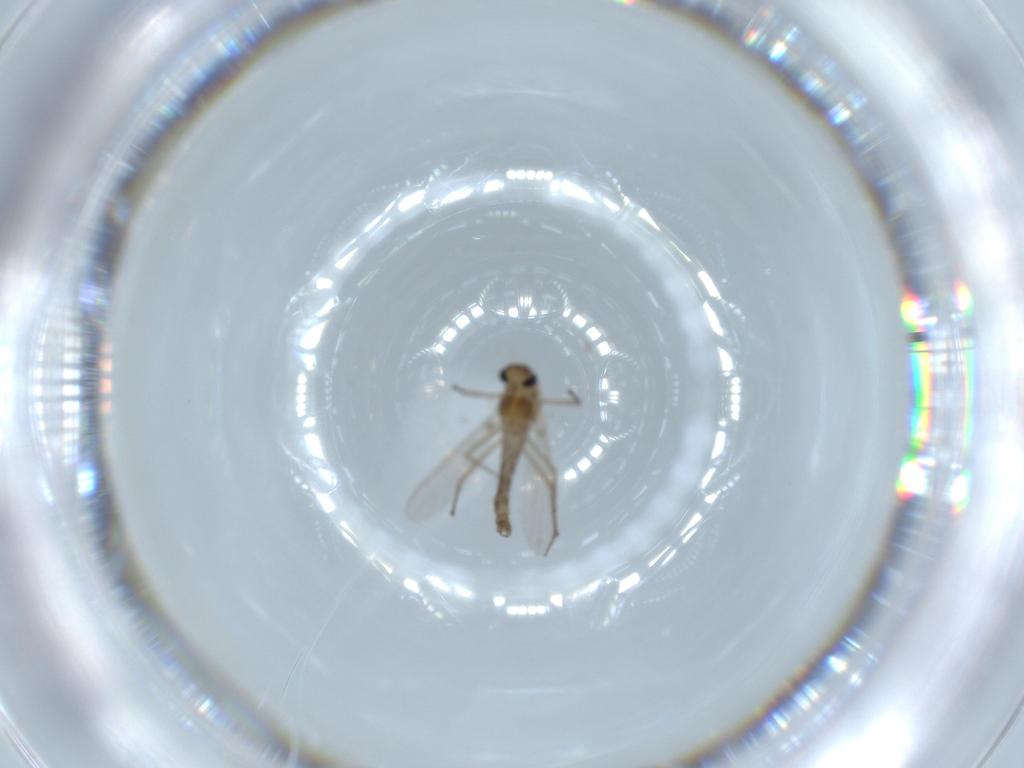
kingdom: Animalia
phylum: Arthropoda
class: Insecta
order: Diptera
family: Chironomidae
